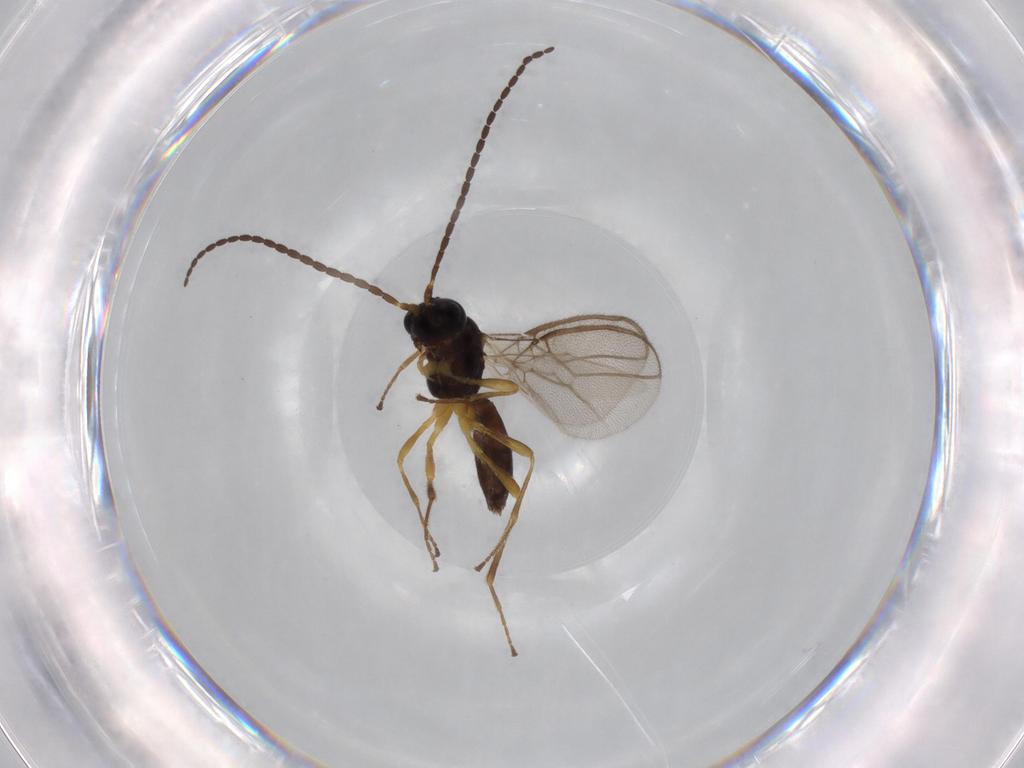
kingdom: Animalia
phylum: Arthropoda
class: Insecta
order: Hymenoptera
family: Braconidae
